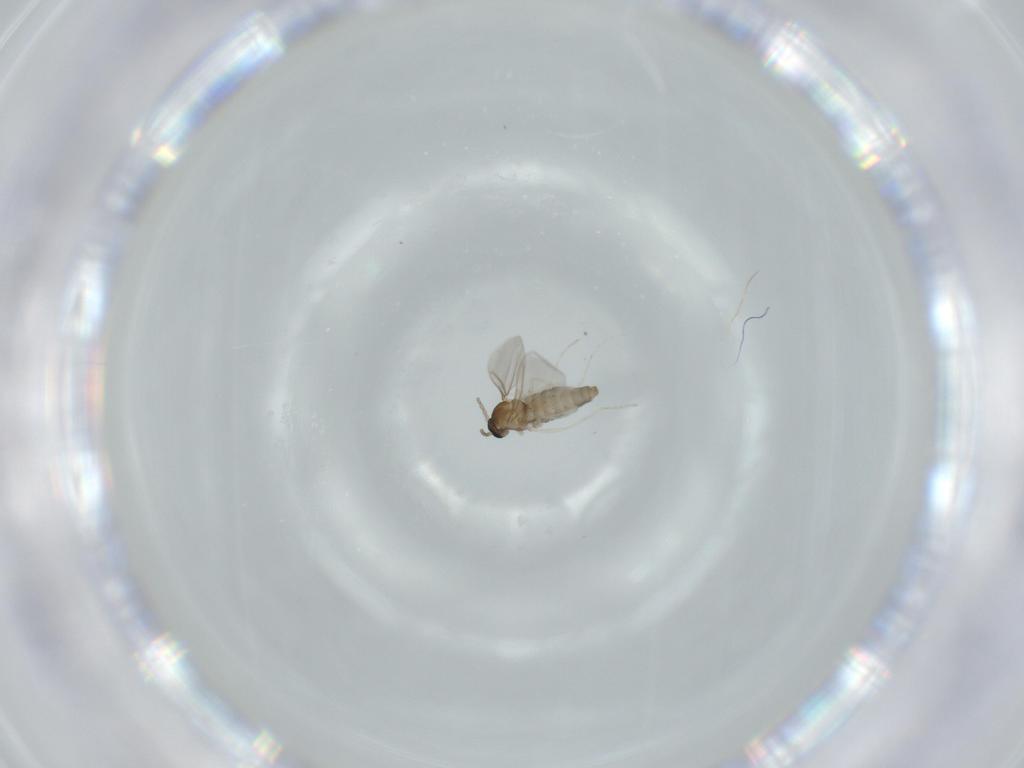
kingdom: Animalia
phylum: Arthropoda
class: Insecta
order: Diptera
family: Cecidomyiidae
